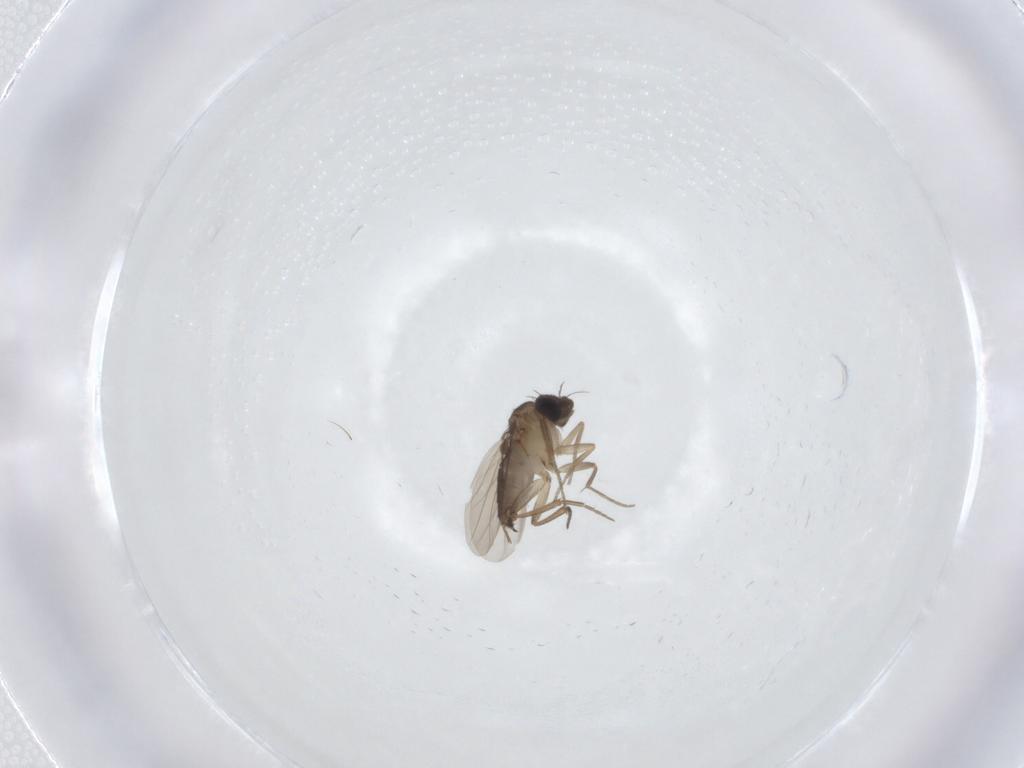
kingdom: Animalia
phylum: Arthropoda
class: Insecta
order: Diptera
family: Phoridae
